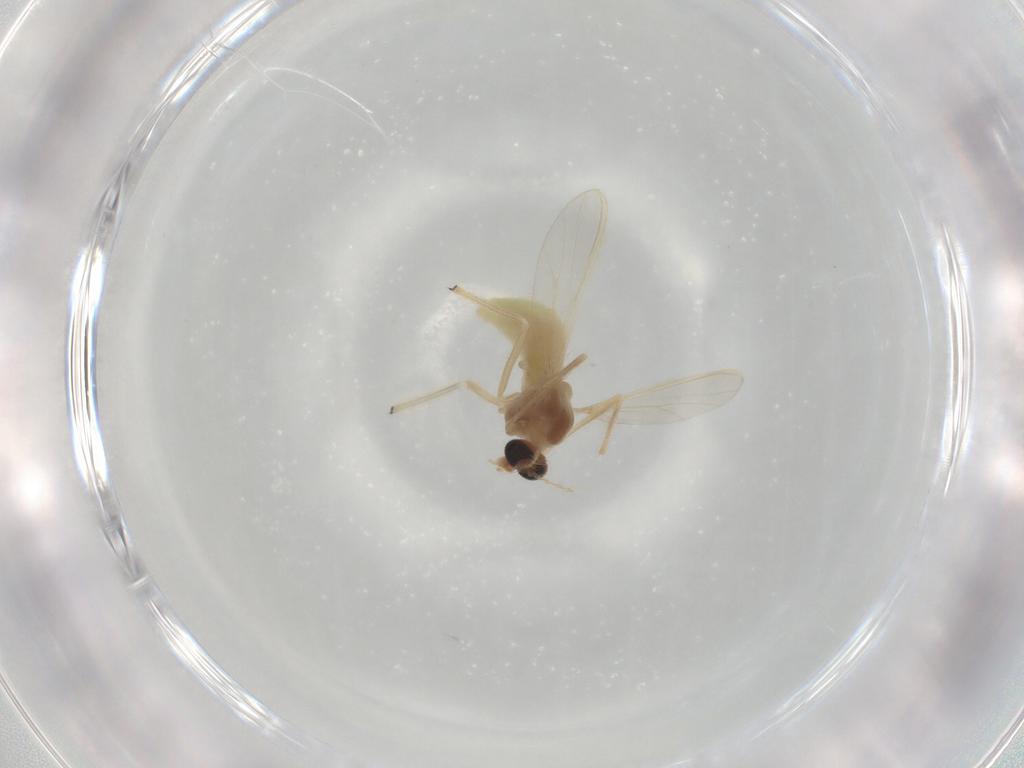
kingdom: Animalia
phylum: Arthropoda
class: Insecta
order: Diptera
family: Chironomidae
